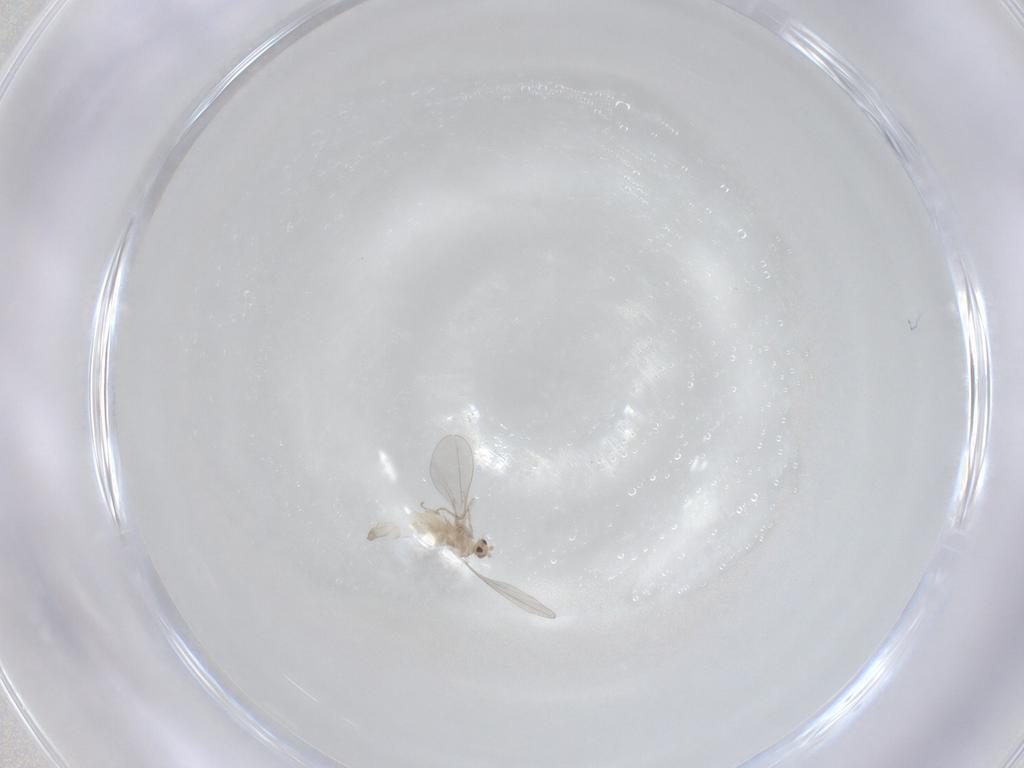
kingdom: Animalia
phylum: Arthropoda
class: Insecta
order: Diptera
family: Cecidomyiidae
